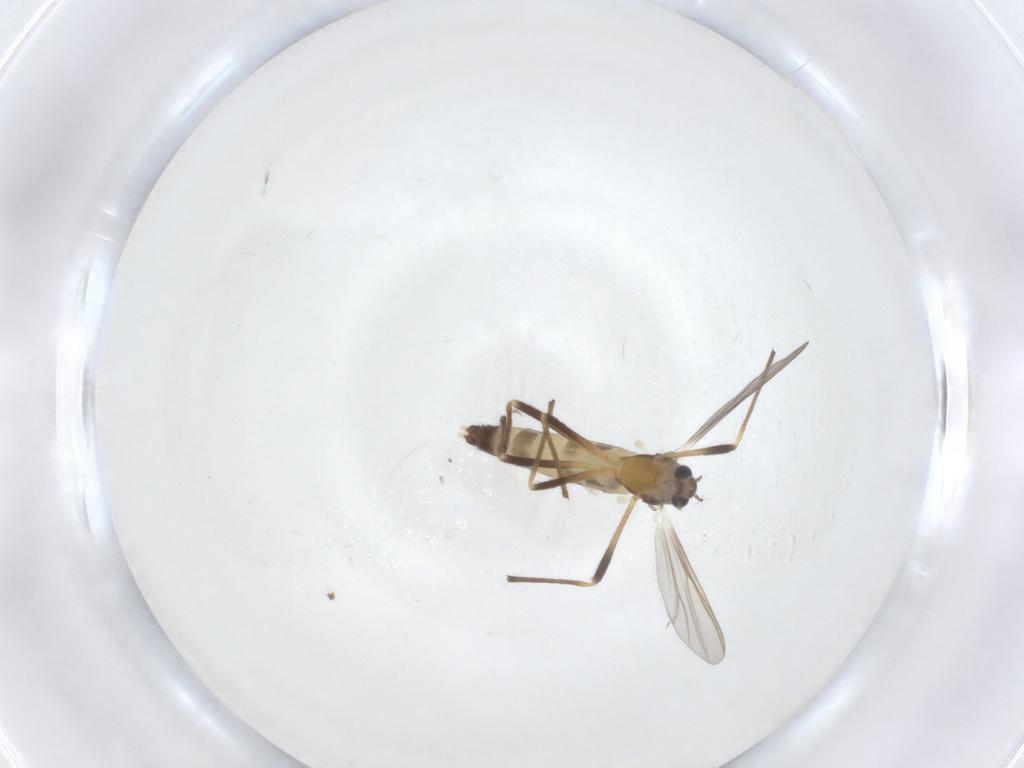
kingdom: Animalia
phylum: Arthropoda
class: Insecta
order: Diptera
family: Chironomidae
